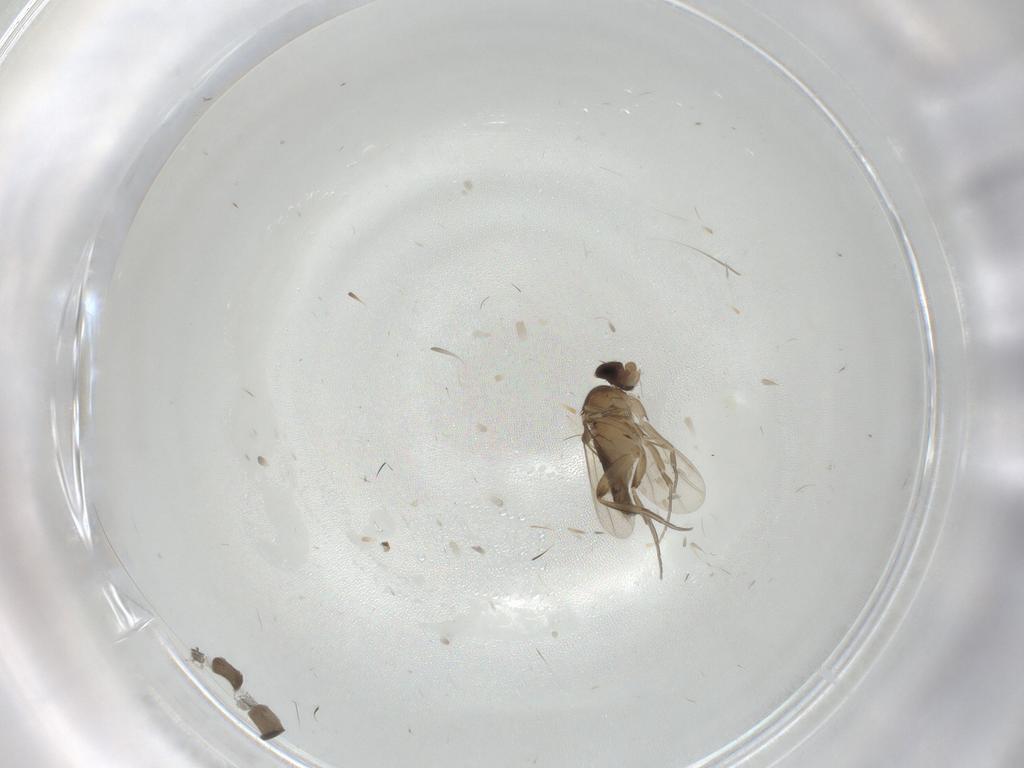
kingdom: Animalia
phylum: Arthropoda
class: Insecta
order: Diptera
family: Phoridae
